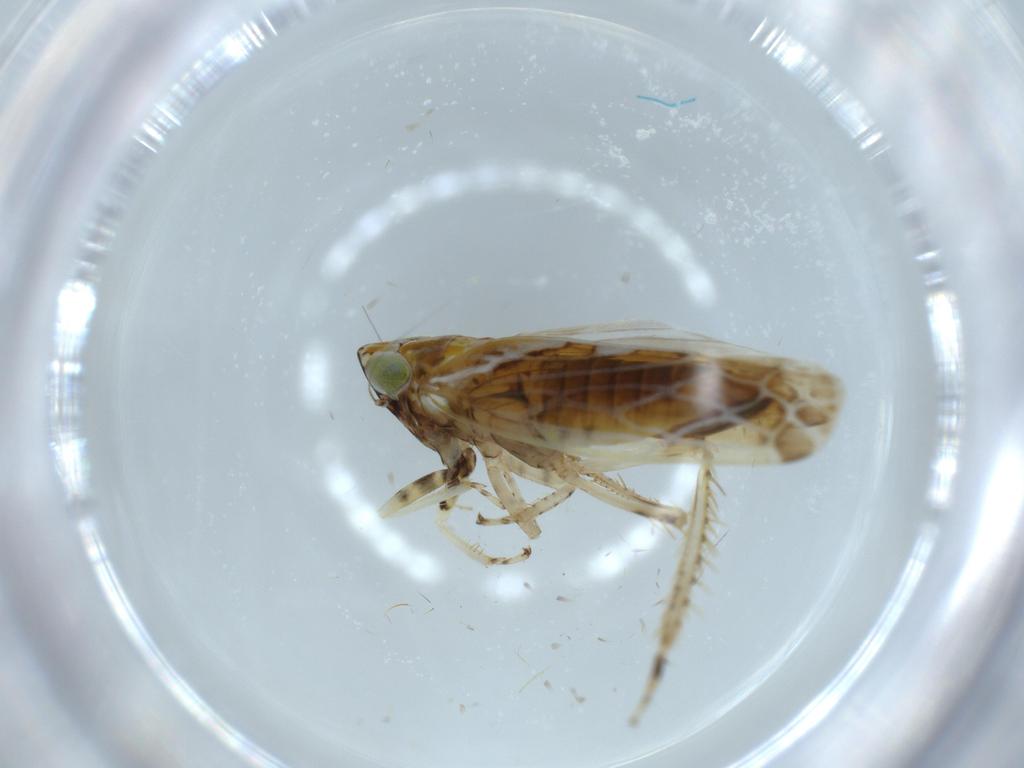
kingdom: Animalia
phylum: Arthropoda
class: Insecta
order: Hemiptera
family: Cicadellidae
